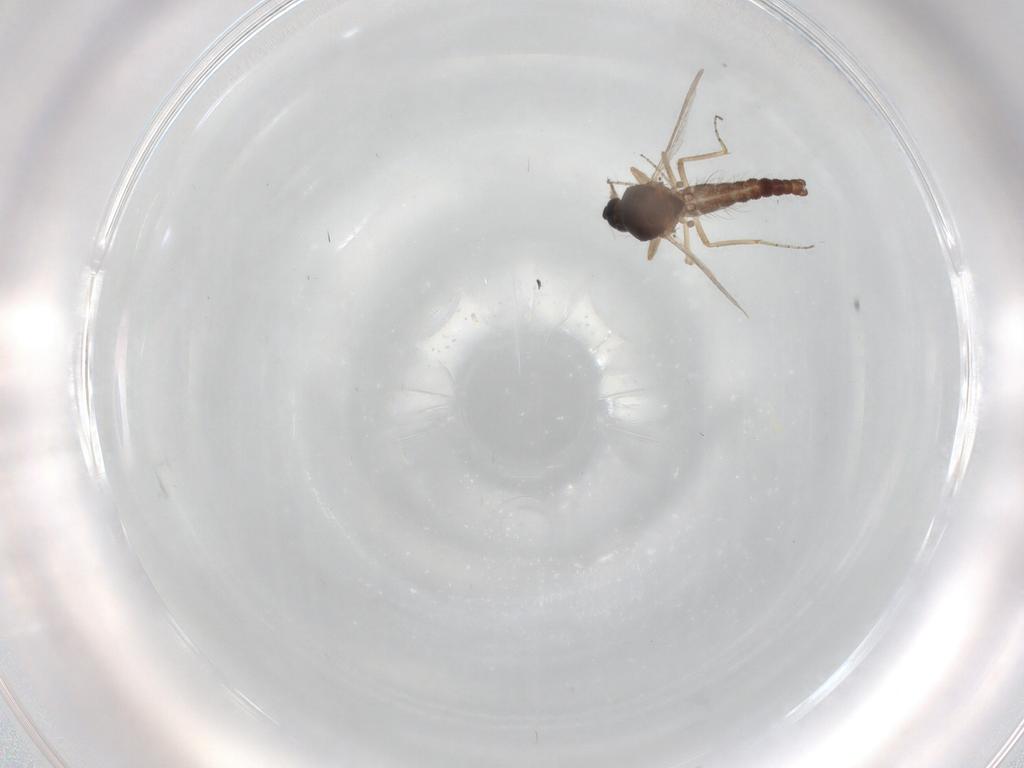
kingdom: Animalia
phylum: Arthropoda
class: Insecta
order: Diptera
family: Ceratopogonidae
